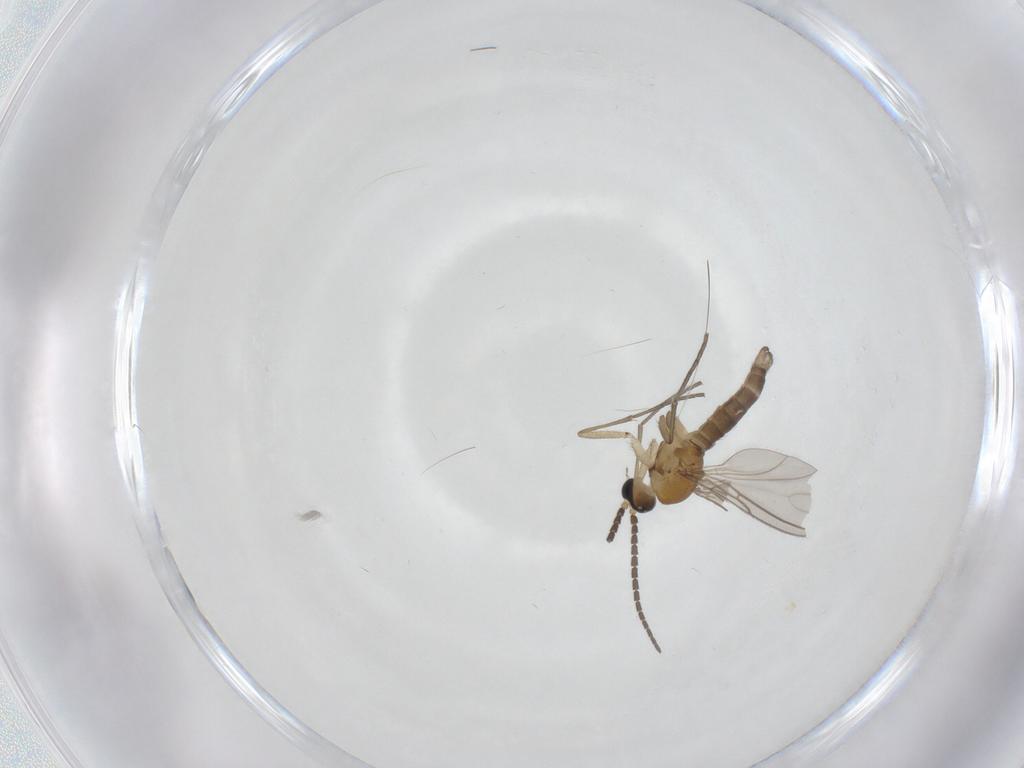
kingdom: Animalia
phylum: Arthropoda
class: Insecta
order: Diptera
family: Sciaridae
